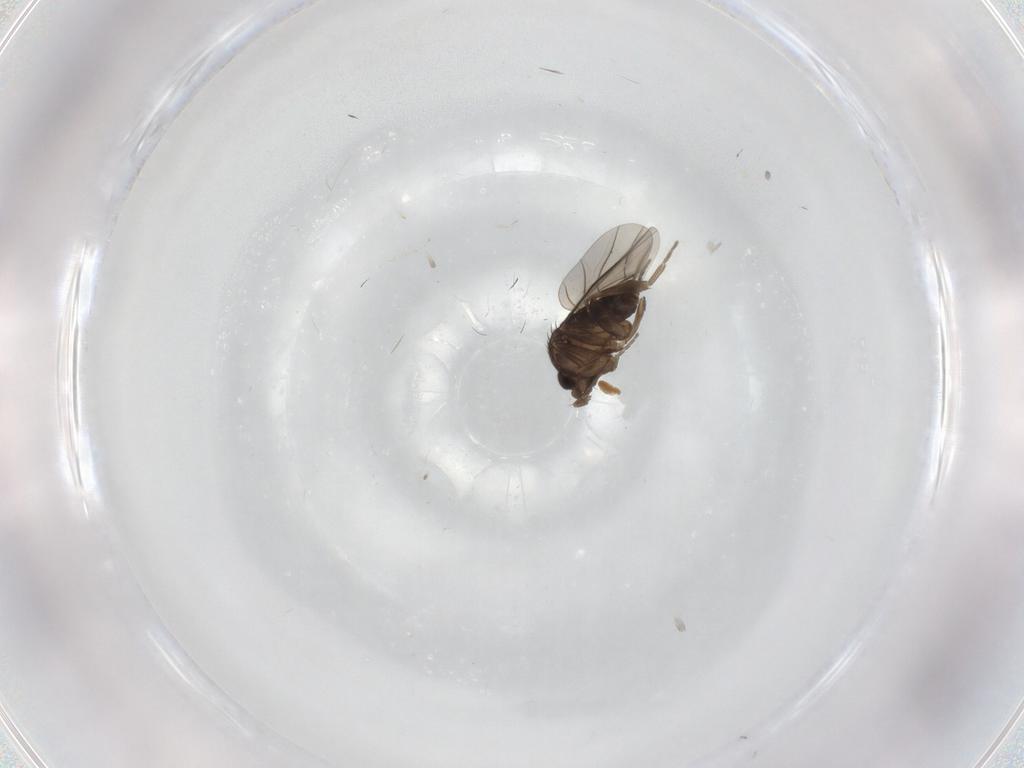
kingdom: Animalia
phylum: Arthropoda
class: Insecta
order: Diptera
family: Phoridae
